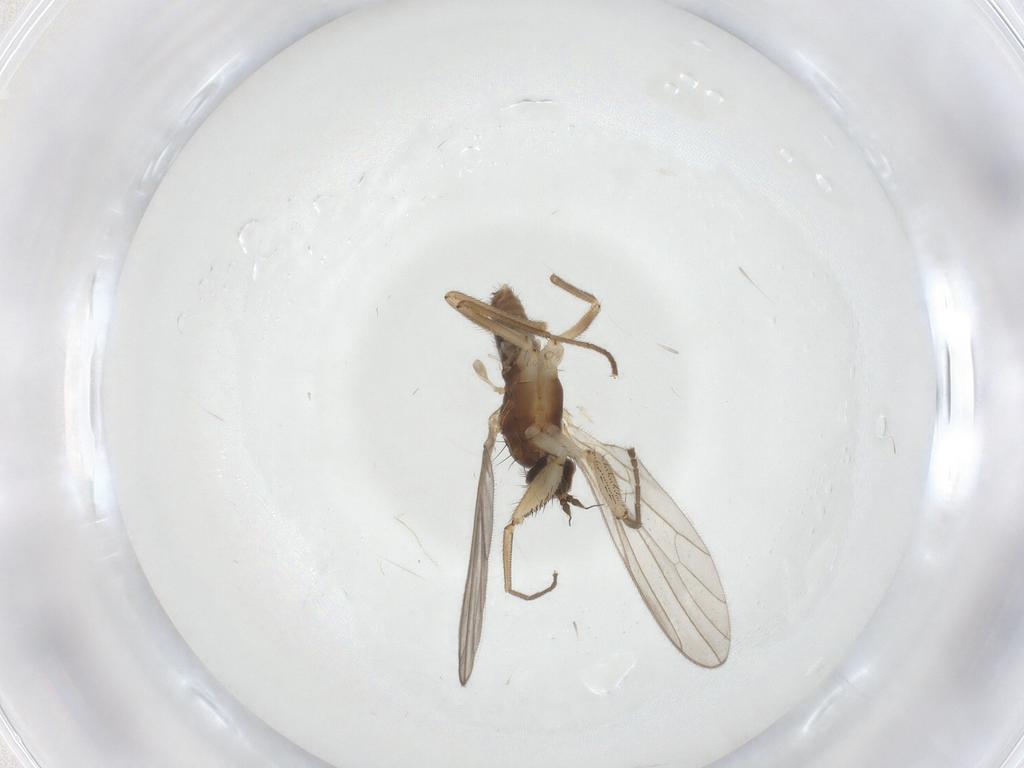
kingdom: Animalia
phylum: Arthropoda
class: Insecta
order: Diptera
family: Empididae
